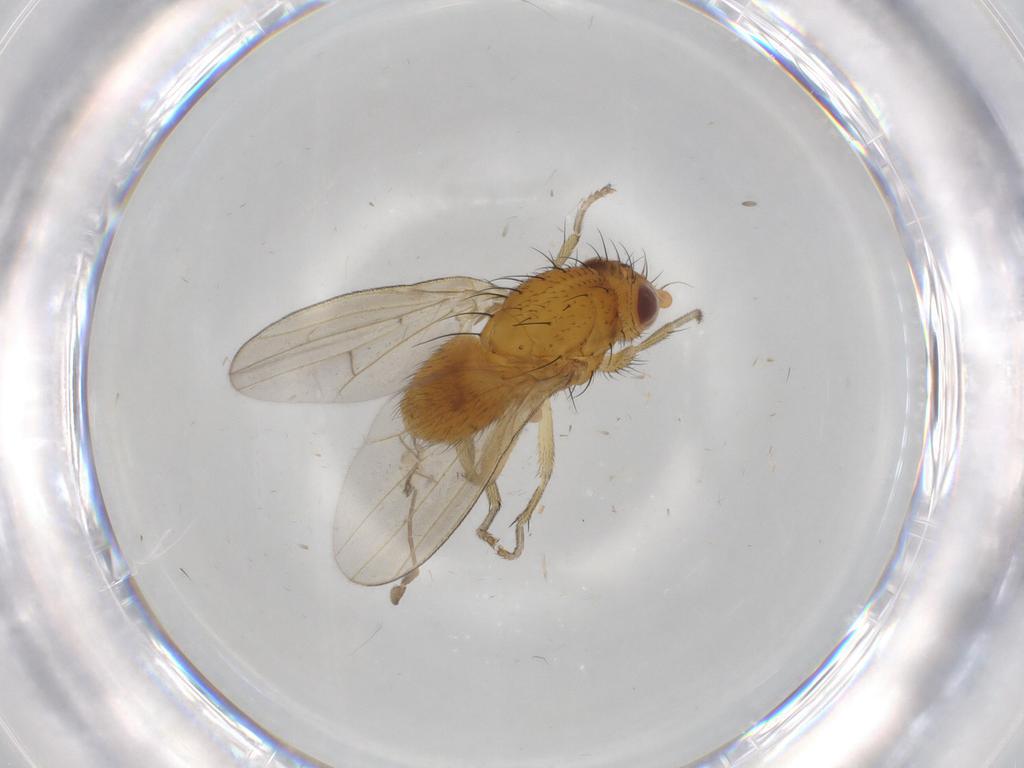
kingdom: Animalia
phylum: Arthropoda
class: Insecta
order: Diptera
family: Sciaridae
